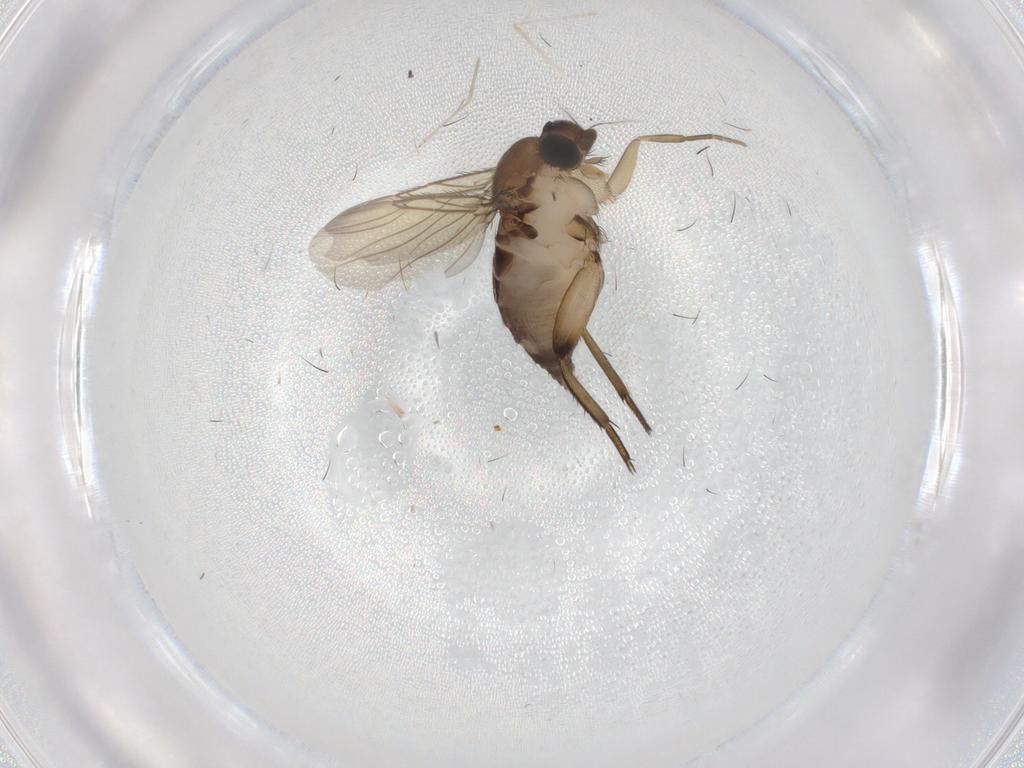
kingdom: Animalia
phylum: Arthropoda
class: Insecta
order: Diptera
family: Phoridae
